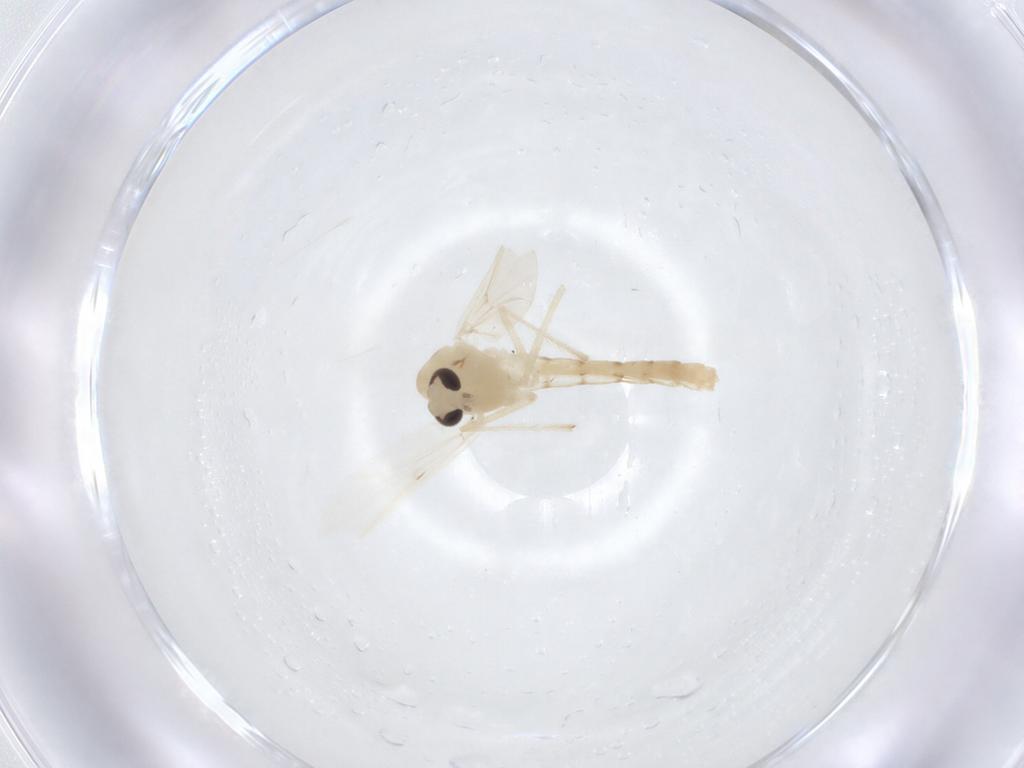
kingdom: Animalia
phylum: Arthropoda
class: Insecta
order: Diptera
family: Chironomidae
